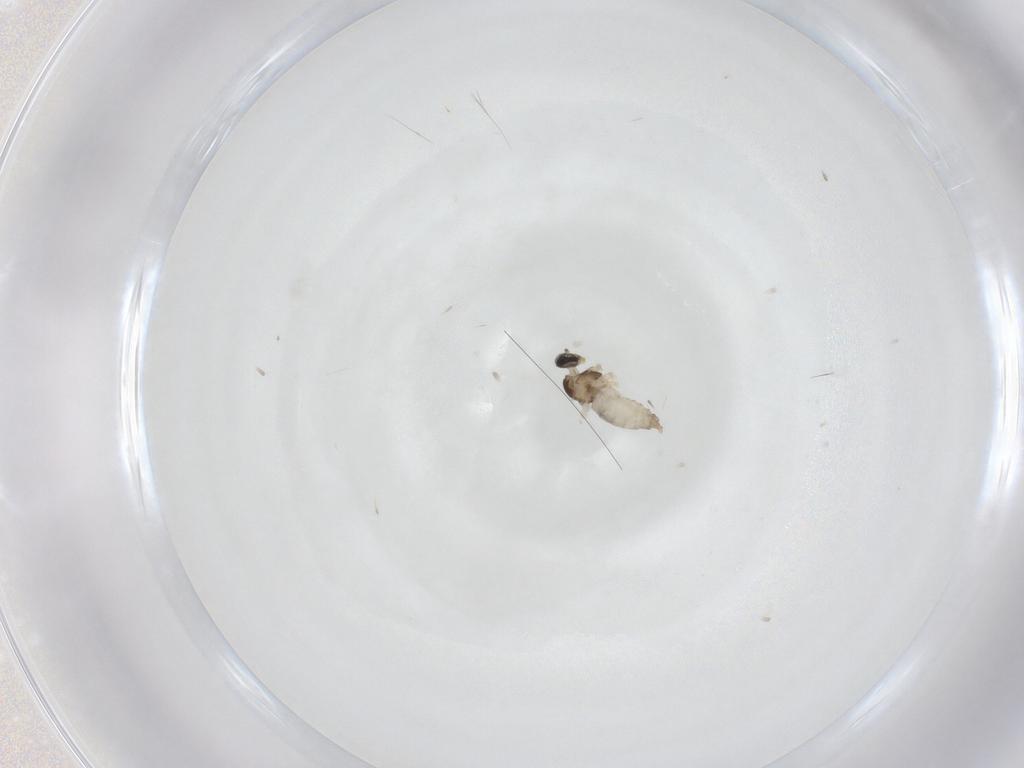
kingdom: Animalia
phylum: Arthropoda
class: Insecta
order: Diptera
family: Cecidomyiidae
